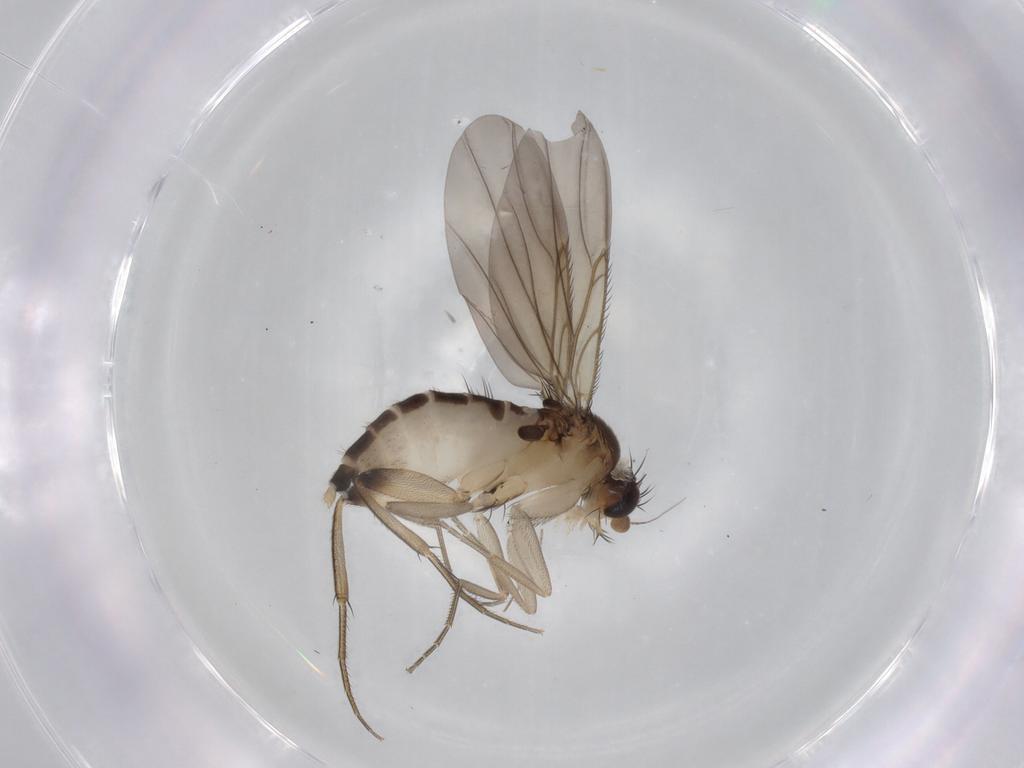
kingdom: Animalia
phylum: Arthropoda
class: Insecta
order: Diptera
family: Phoridae
